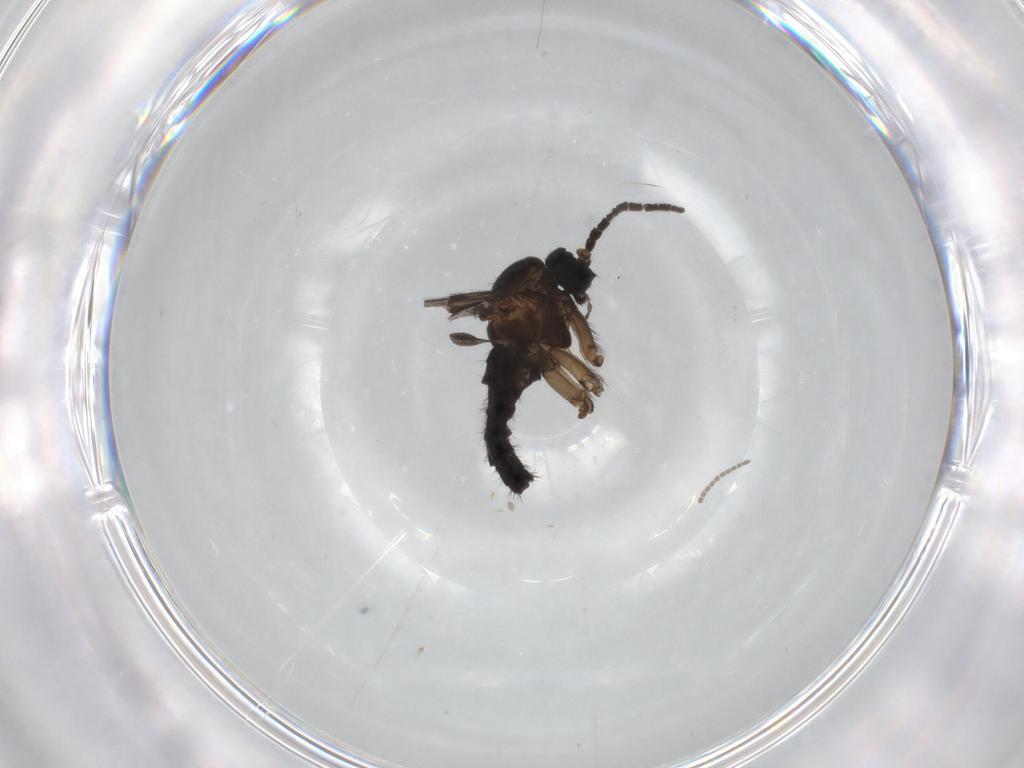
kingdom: Animalia
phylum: Arthropoda
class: Insecta
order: Diptera
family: Sciaridae
